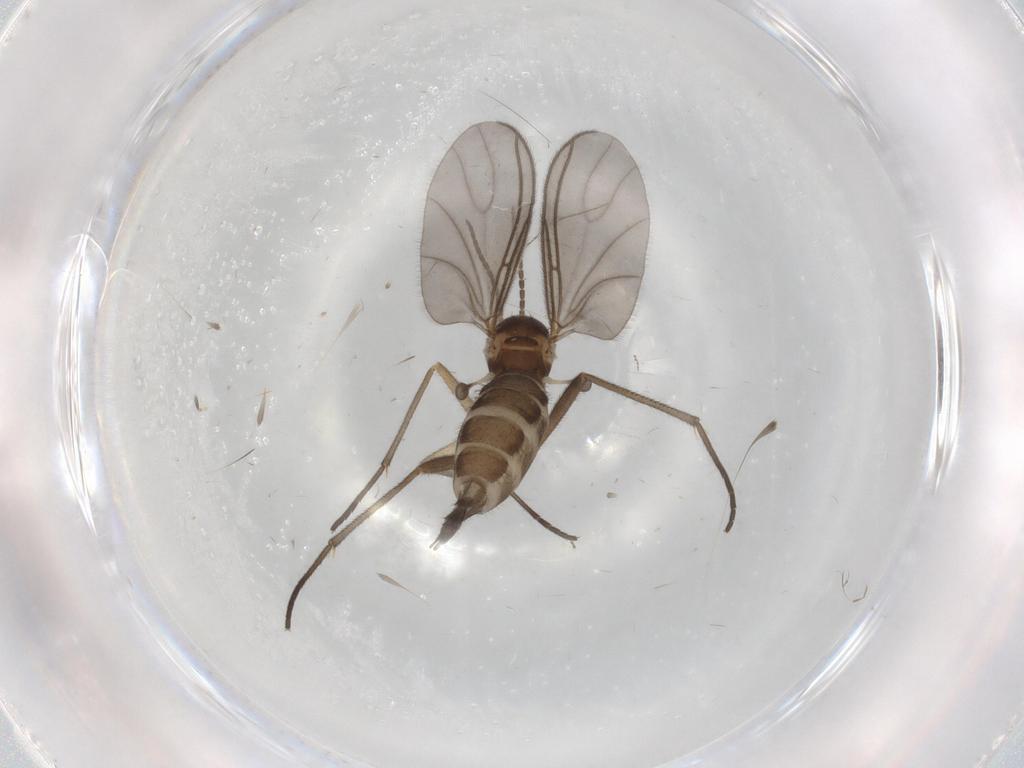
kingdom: Animalia
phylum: Arthropoda
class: Insecta
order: Diptera
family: Sciaridae
